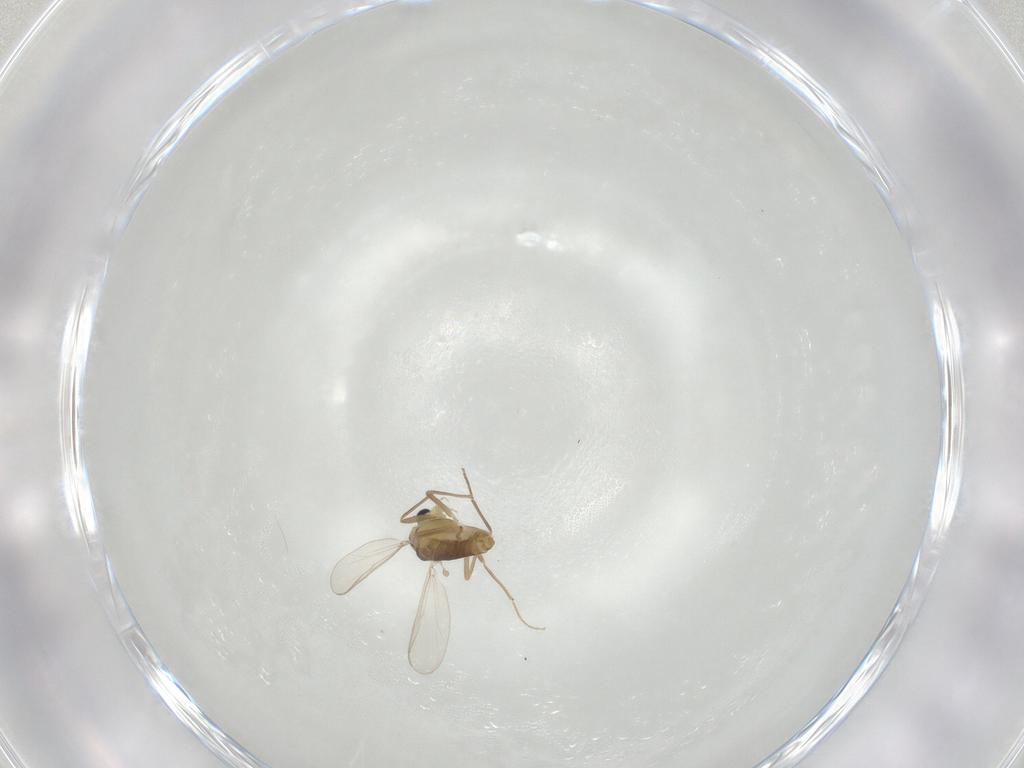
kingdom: Animalia
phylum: Arthropoda
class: Insecta
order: Diptera
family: Chironomidae
